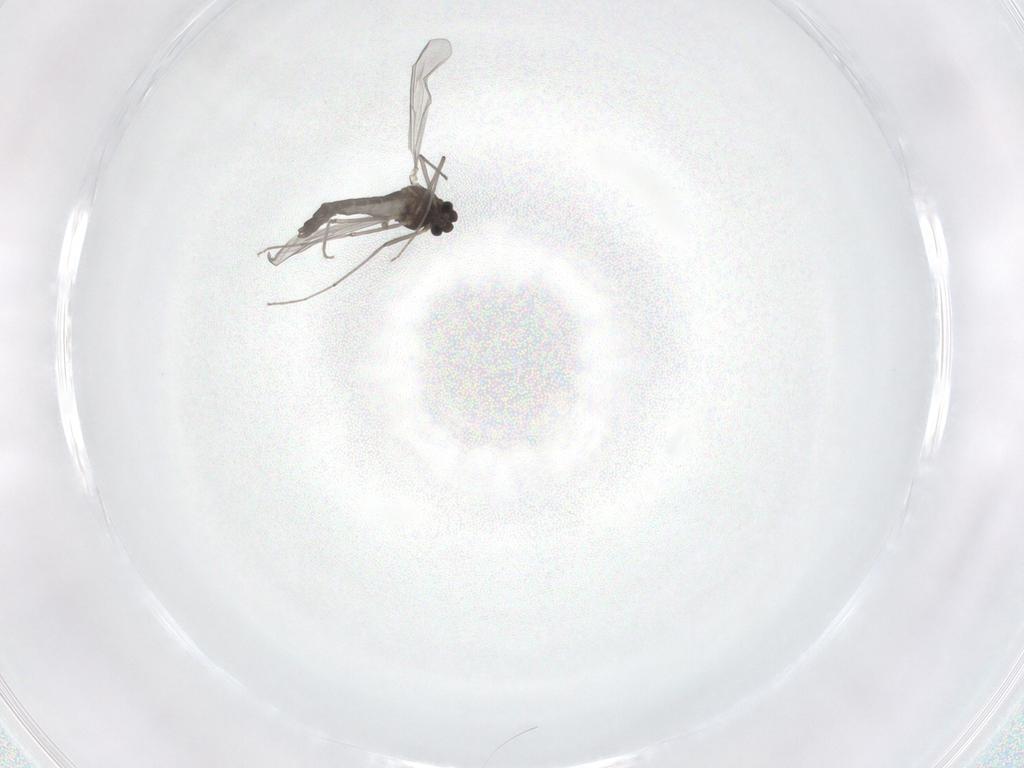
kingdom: Animalia
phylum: Arthropoda
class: Insecta
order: Diptera
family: Chironomidae
